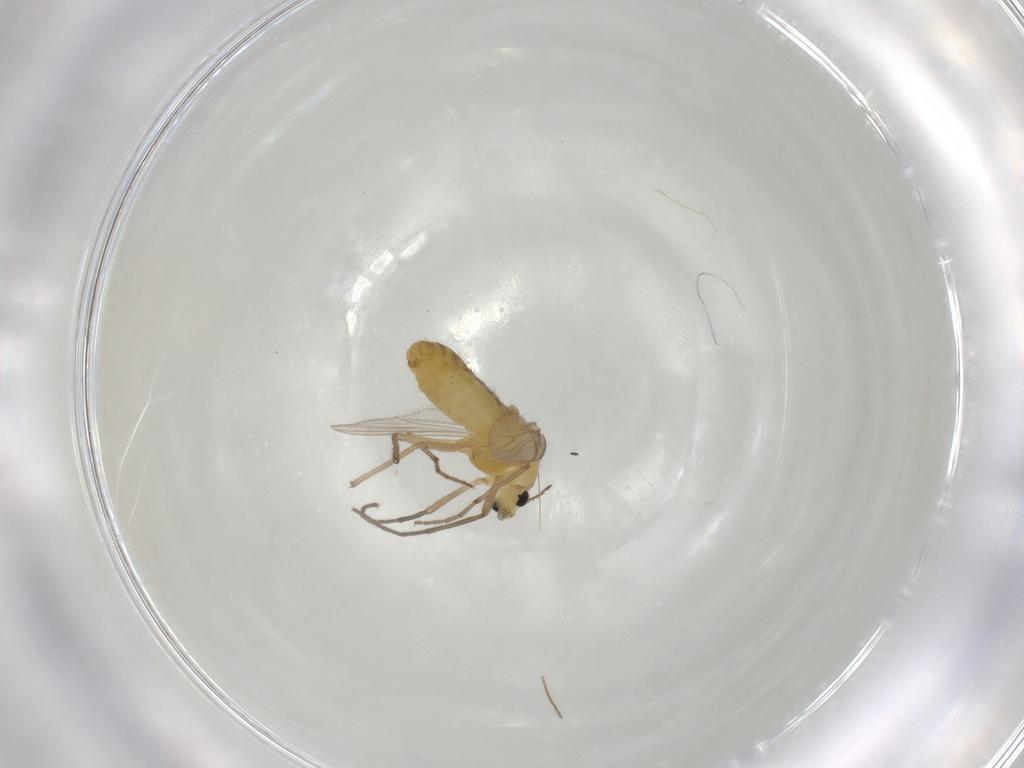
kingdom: Animalia
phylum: Arthropoda
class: Insecta
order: Diptera
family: Chironomidae
